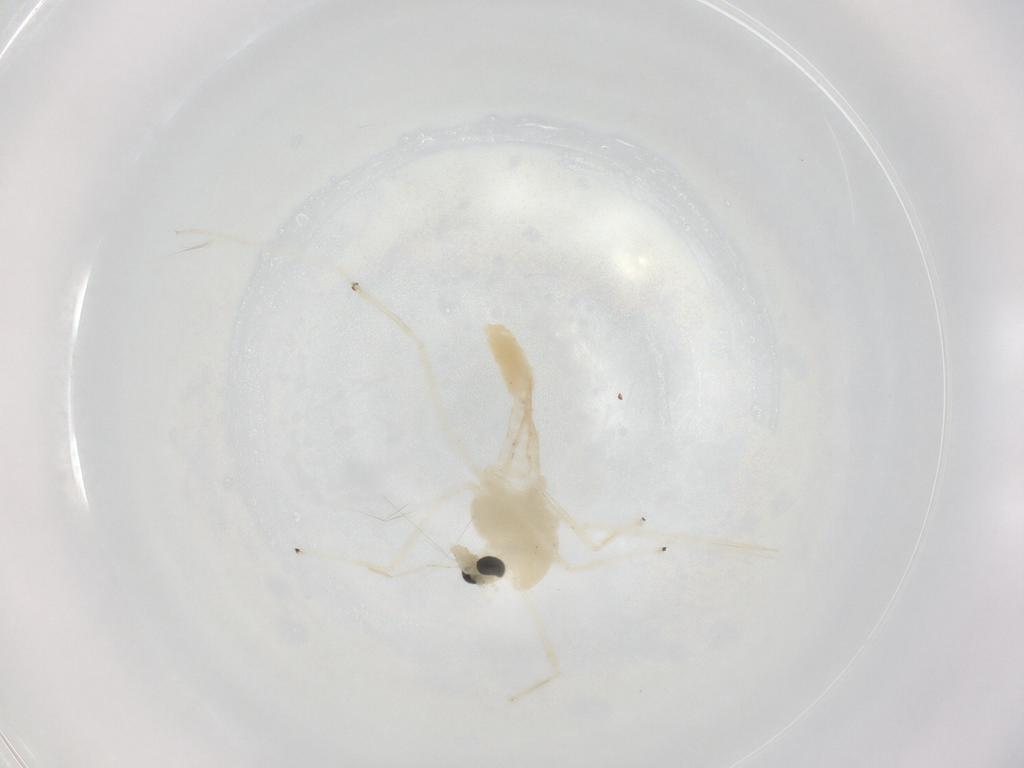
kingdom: Animalia
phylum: Arthropoda
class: Insecta
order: Diptera
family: Cecidomyiidae
